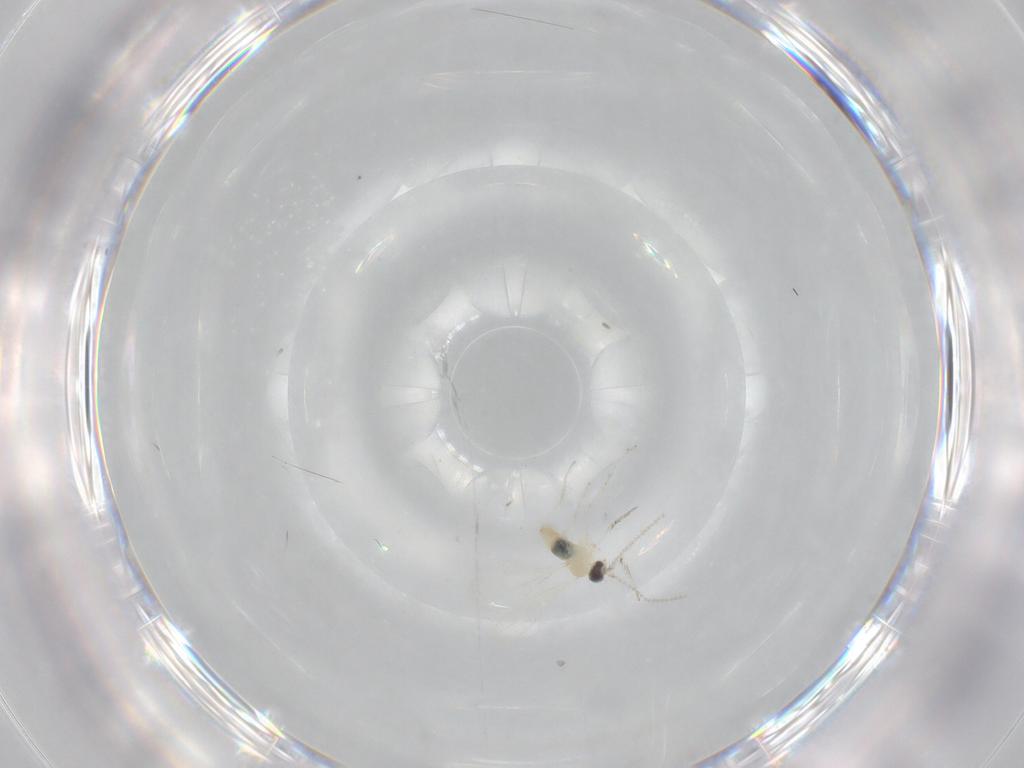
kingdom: Animalia
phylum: Arthropoda
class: Insecta
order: Diptera
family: Cecidomyiidae
